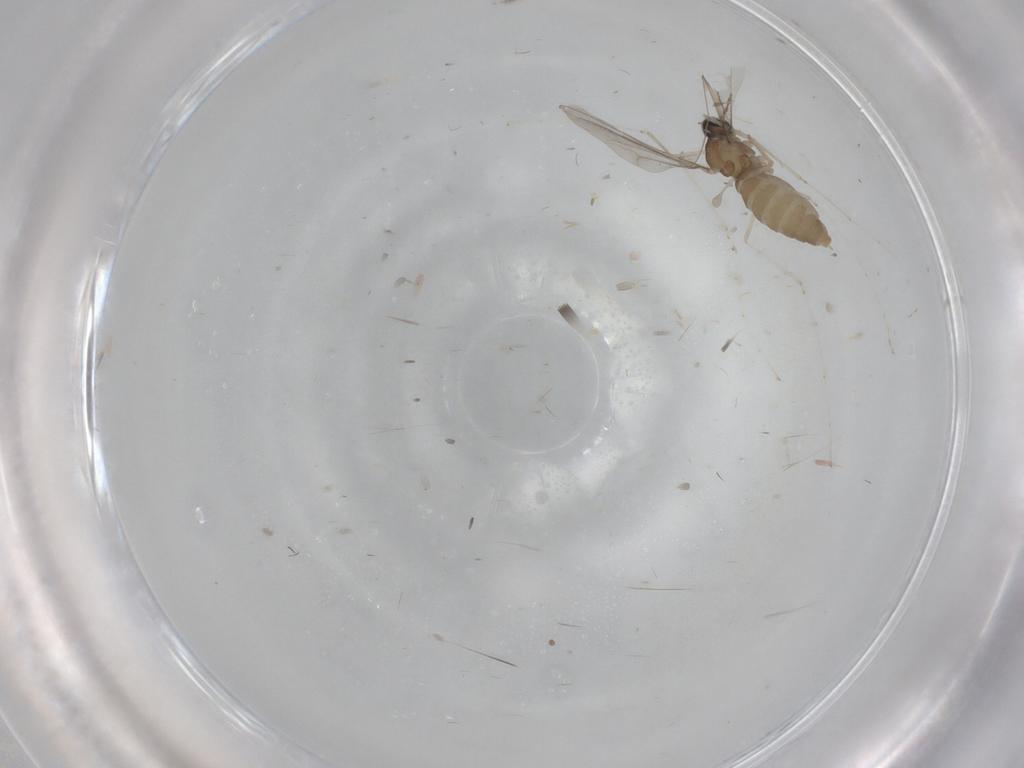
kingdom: Animalia
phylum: Arthropoda
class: Insecta
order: Diptera
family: Cecidomyiidae
